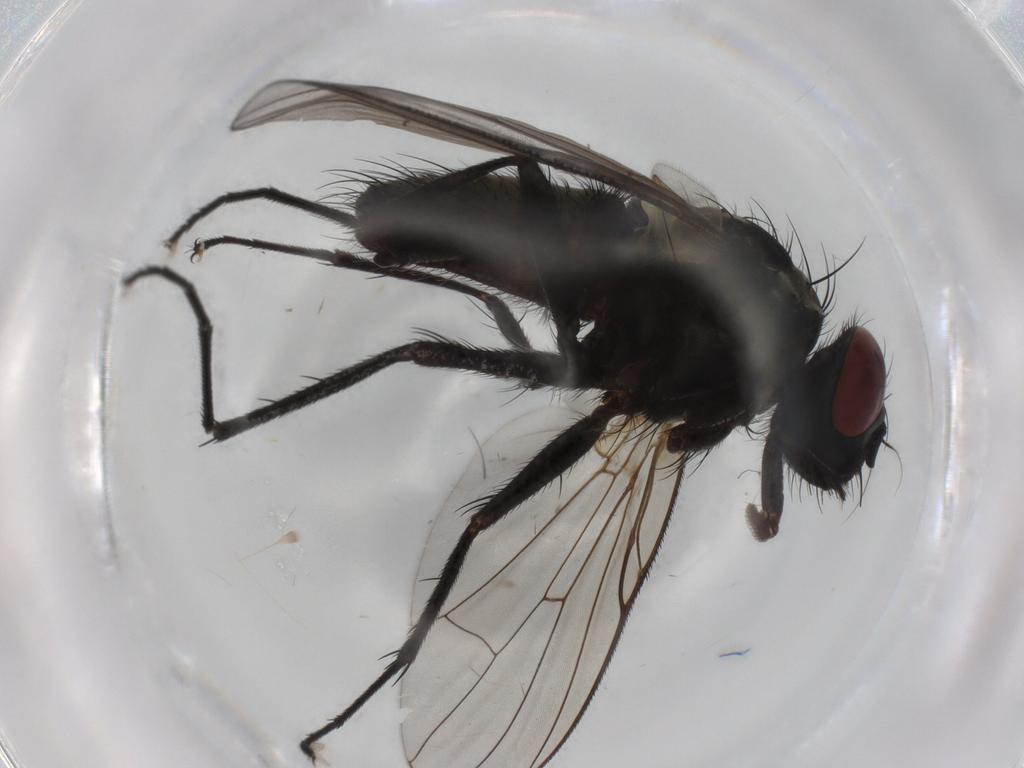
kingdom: Animalia
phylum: Arthropoda
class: Insecta
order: Diptera
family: Muscidae
